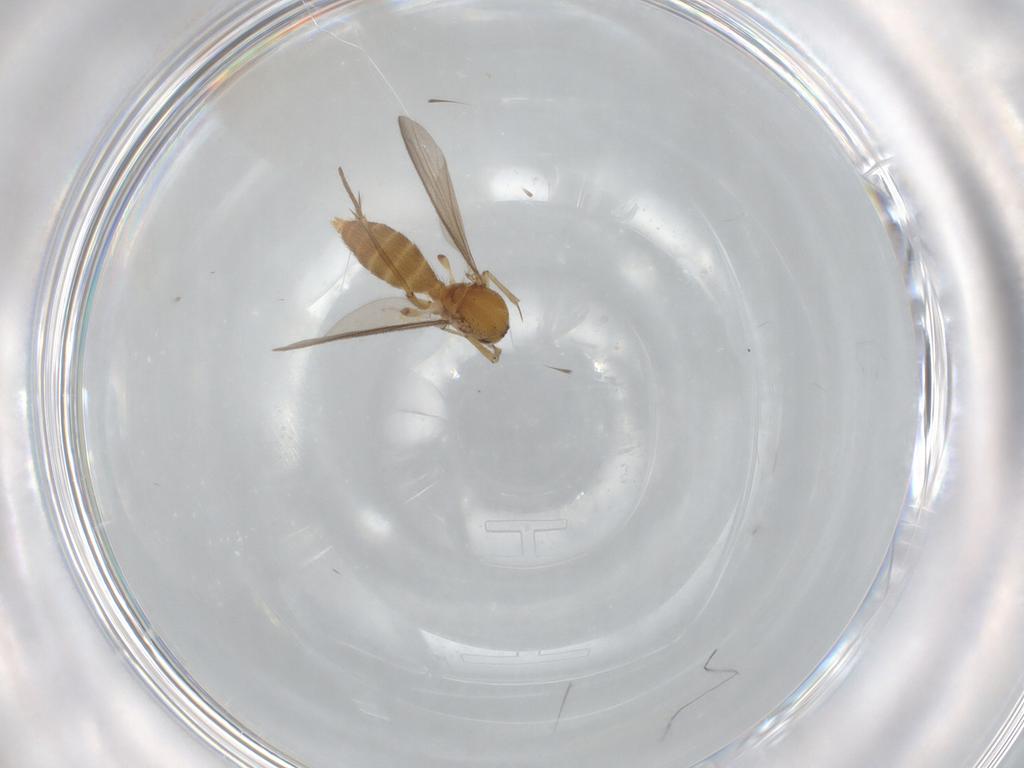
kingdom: Animalia
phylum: Arthropoda
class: Insecta
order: Diptera
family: Mycetophilidae
